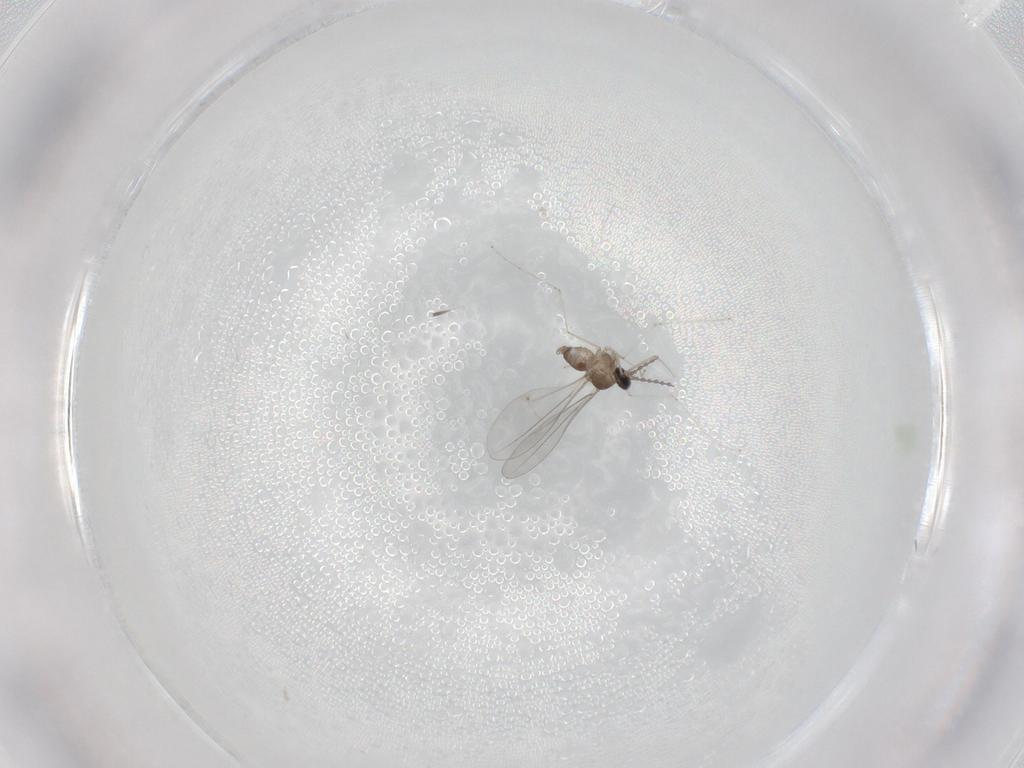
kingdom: Animalia
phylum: Arthropoda
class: Insecta
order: Diptera
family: Cecidomyiidae
